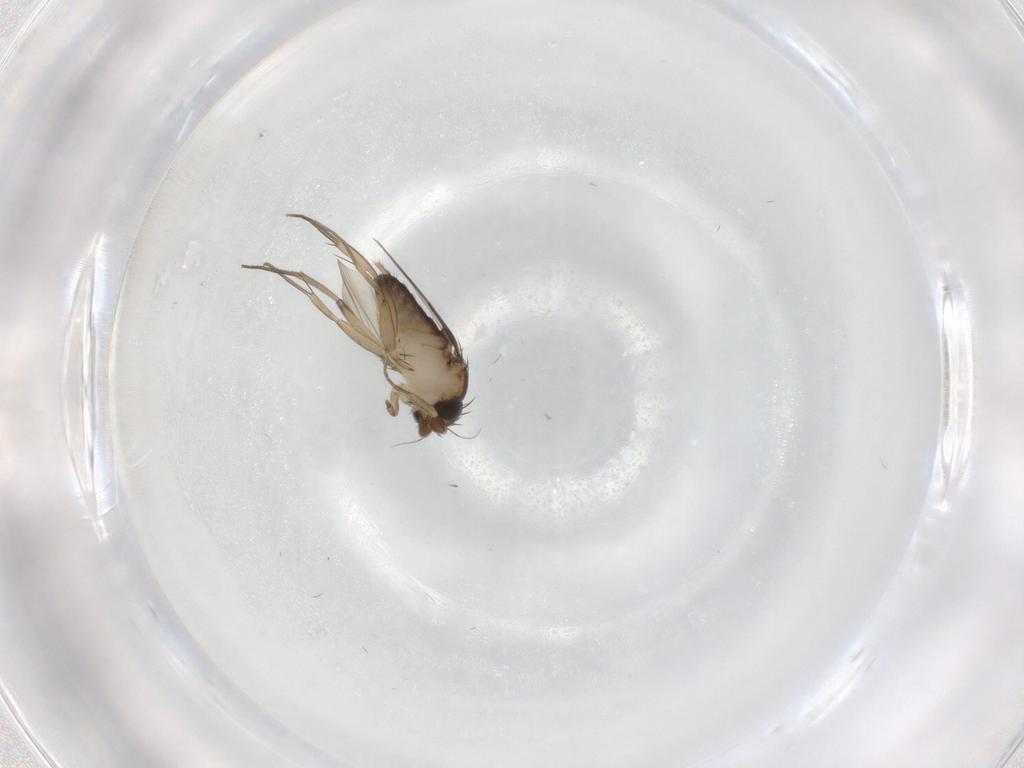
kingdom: Animalia
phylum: Arthropoda
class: Insecta
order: Diptera
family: Phoridae
